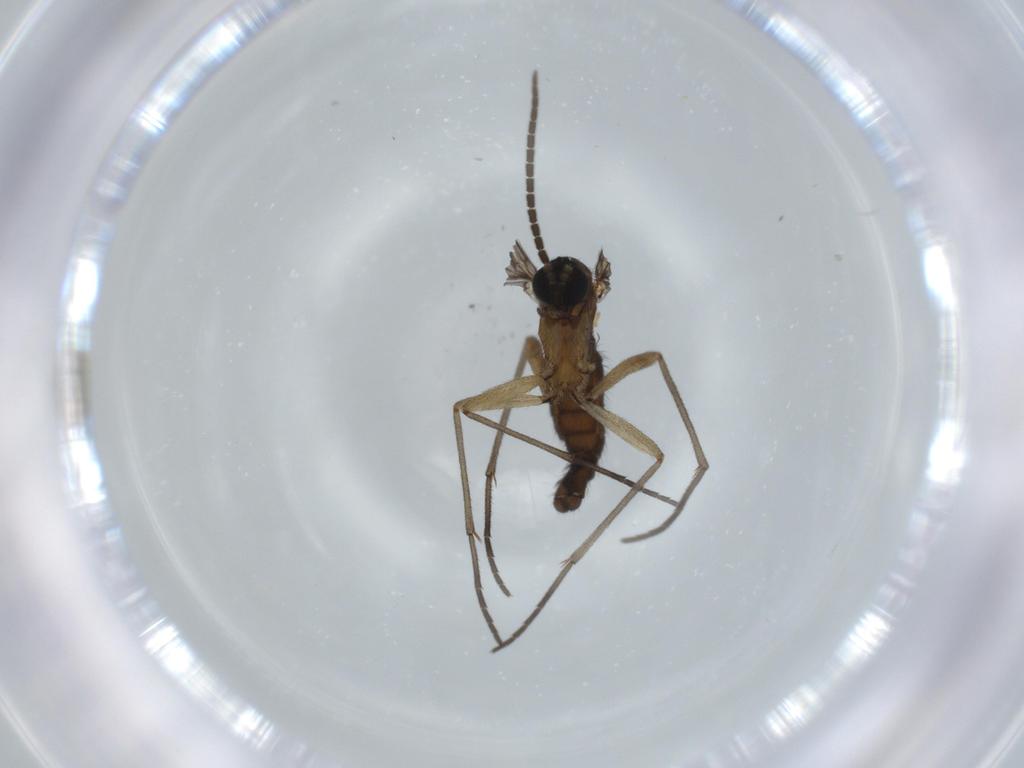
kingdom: Animalia
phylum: Arthropoda
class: Insecta
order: Diptera
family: Sciaridae
